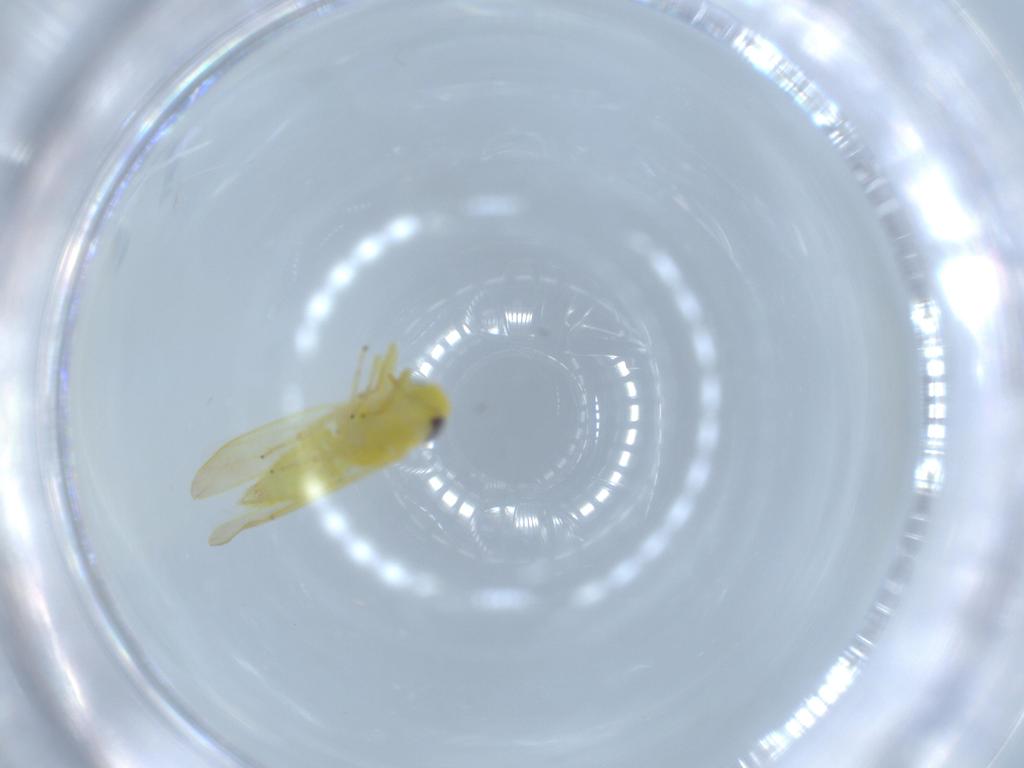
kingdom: Animalia
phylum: Arthropoda
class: Insecta
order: Hemiptera
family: Cicadellidae
